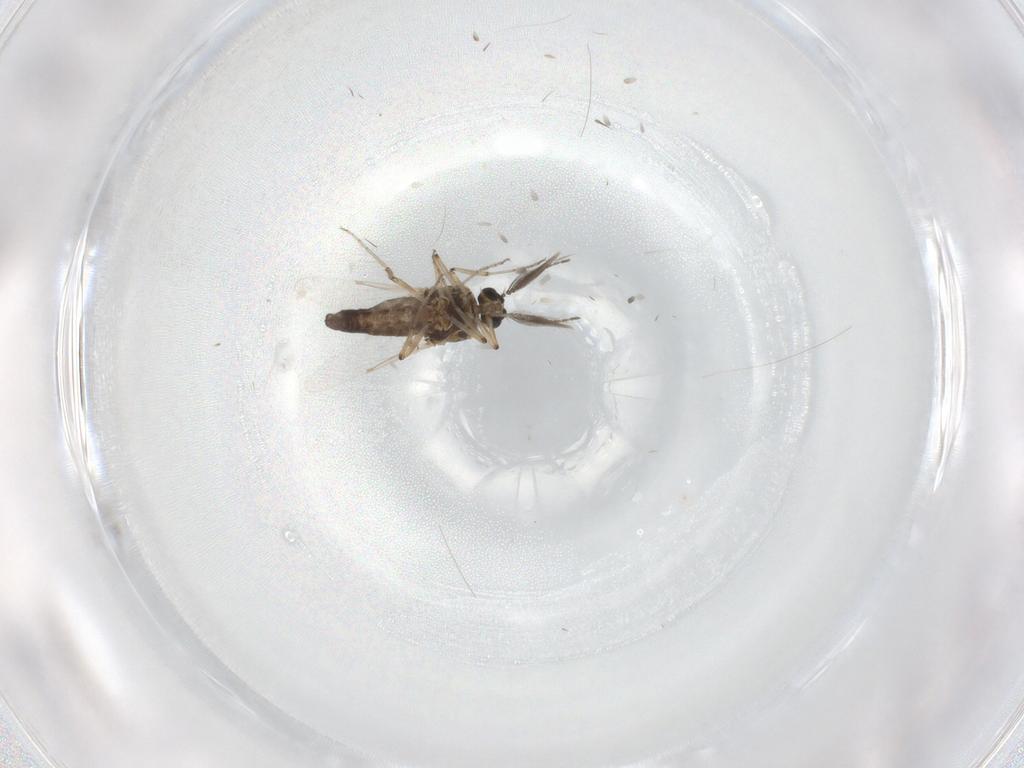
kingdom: Animalia
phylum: Arthropoda
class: Insecta
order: Diptera
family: Ceratopogonidae
